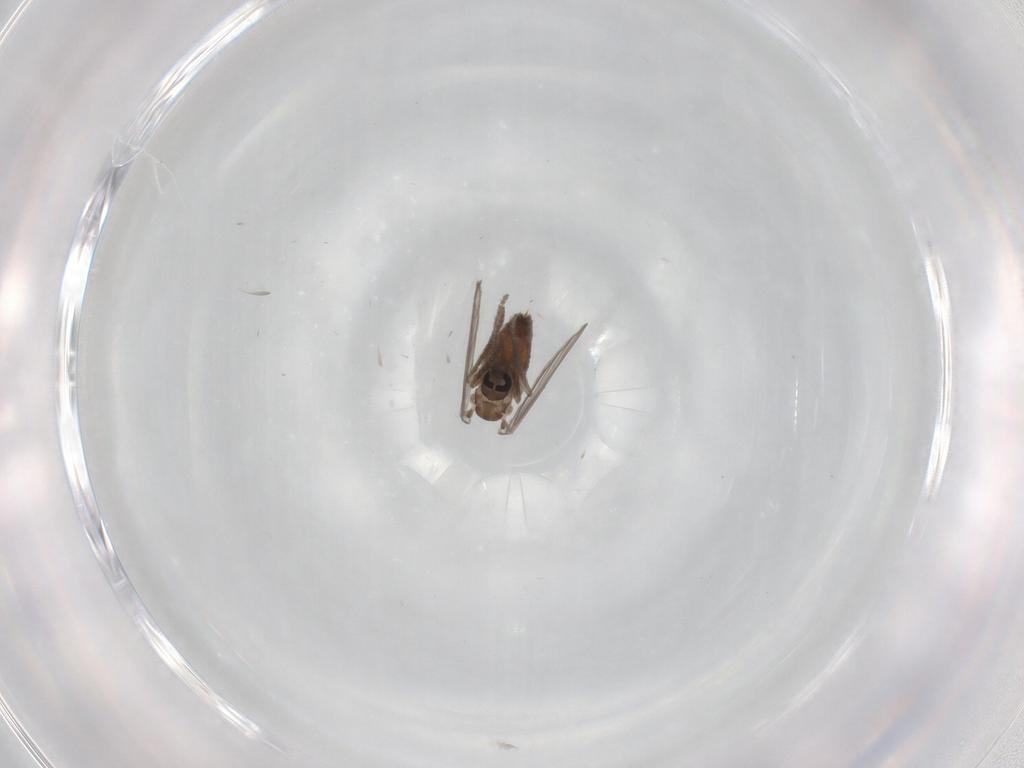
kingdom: Animalia
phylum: Arthropoda
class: Insecta
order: Diptera
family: Psychodidae
